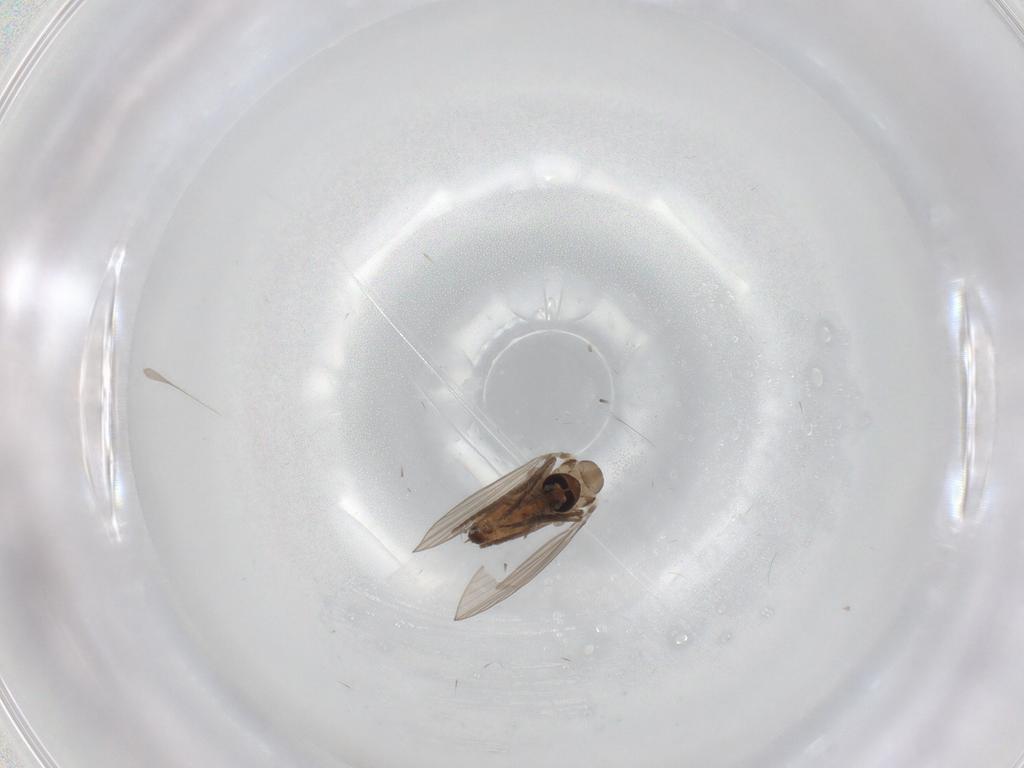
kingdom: Animalia
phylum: Arthropoda
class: Insecta
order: Diptera
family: Psychodidae
